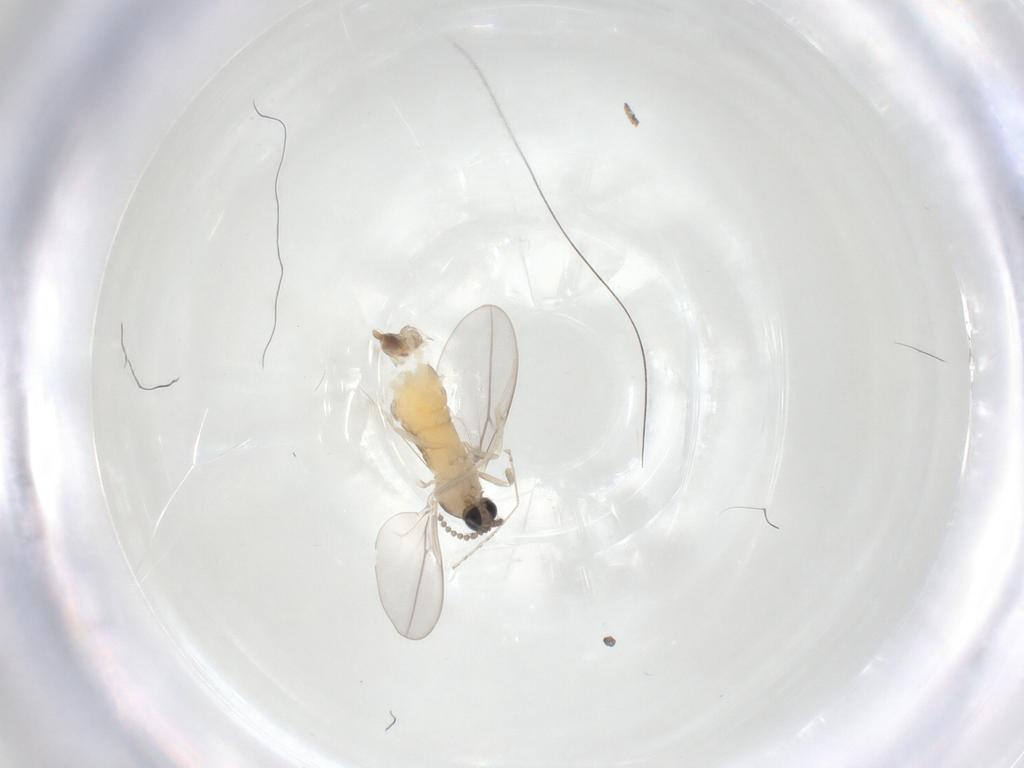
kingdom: Animalia
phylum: Arthropoda
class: Insecta
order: Diptera
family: Cecidomyiidae
